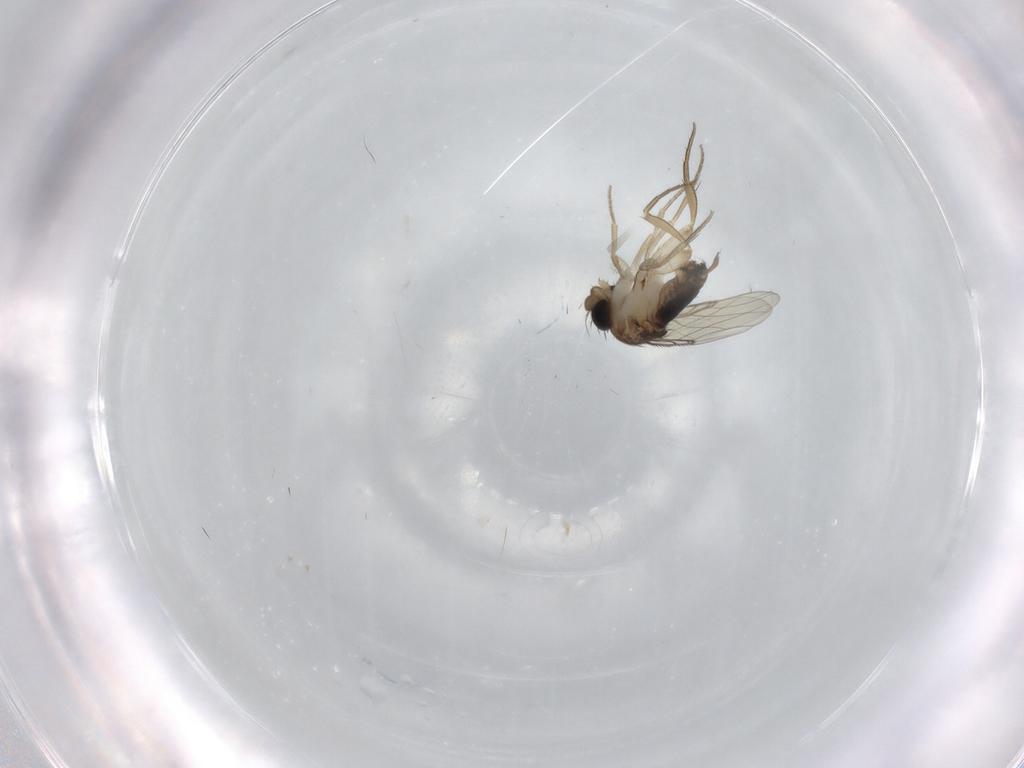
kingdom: Animalia
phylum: Arthropoda
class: Insecta
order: Diptera
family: Phoridae
